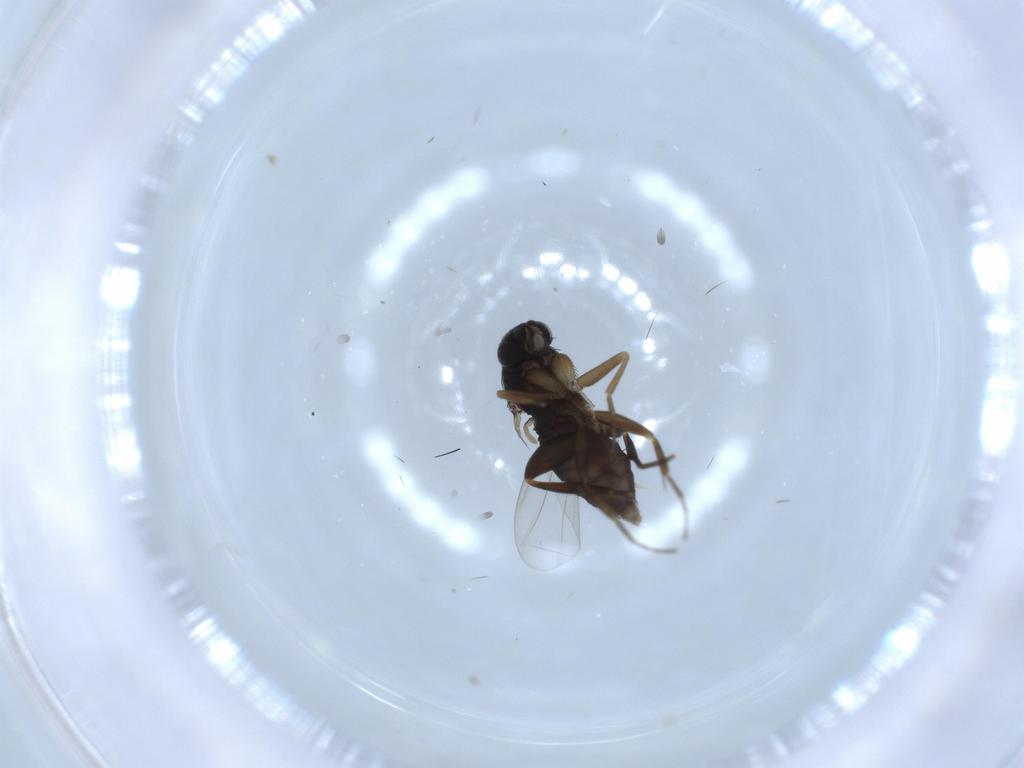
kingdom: Animalia
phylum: Arthropoda
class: Insecta
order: Diptera
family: Phoridae
